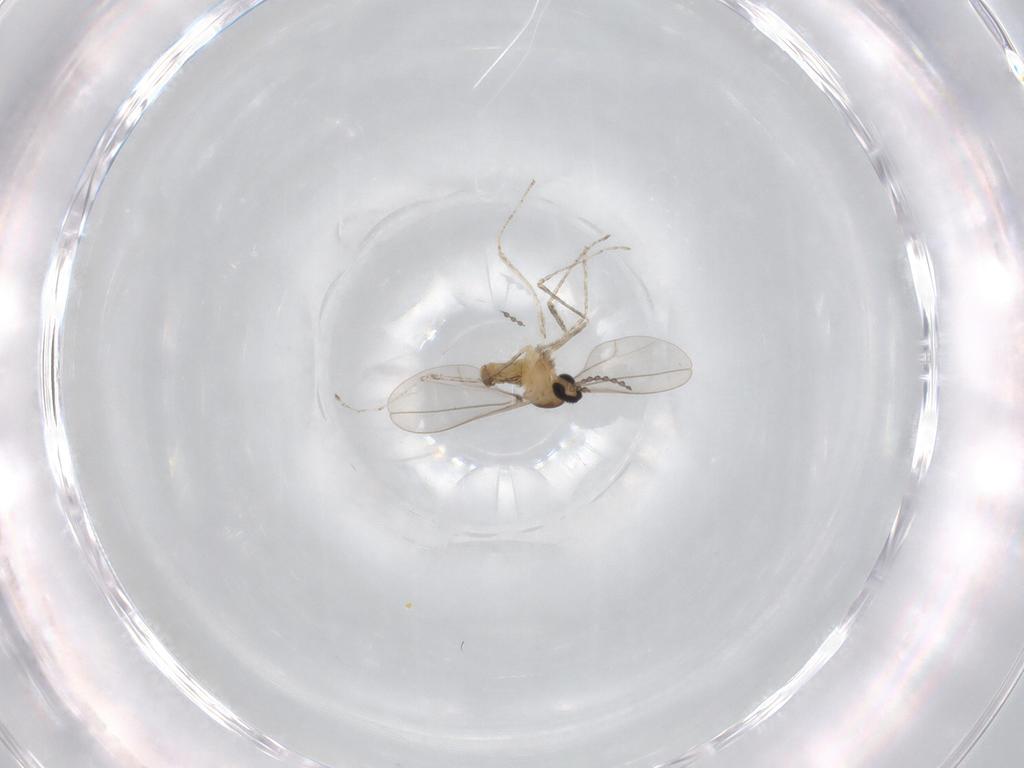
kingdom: Animalia
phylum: Arthropoda
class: Insecta
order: Diptera
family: Cecidomyiidae
